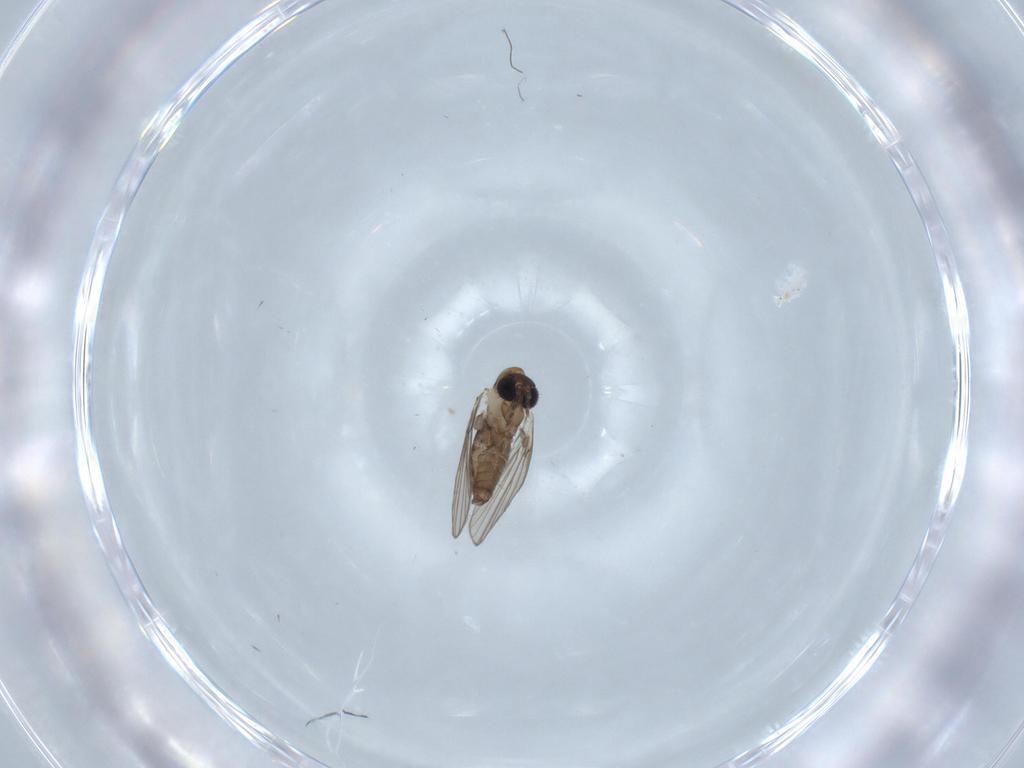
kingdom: Animalia
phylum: Arthropoda
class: Insecta
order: Diptera
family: Psychodidae
